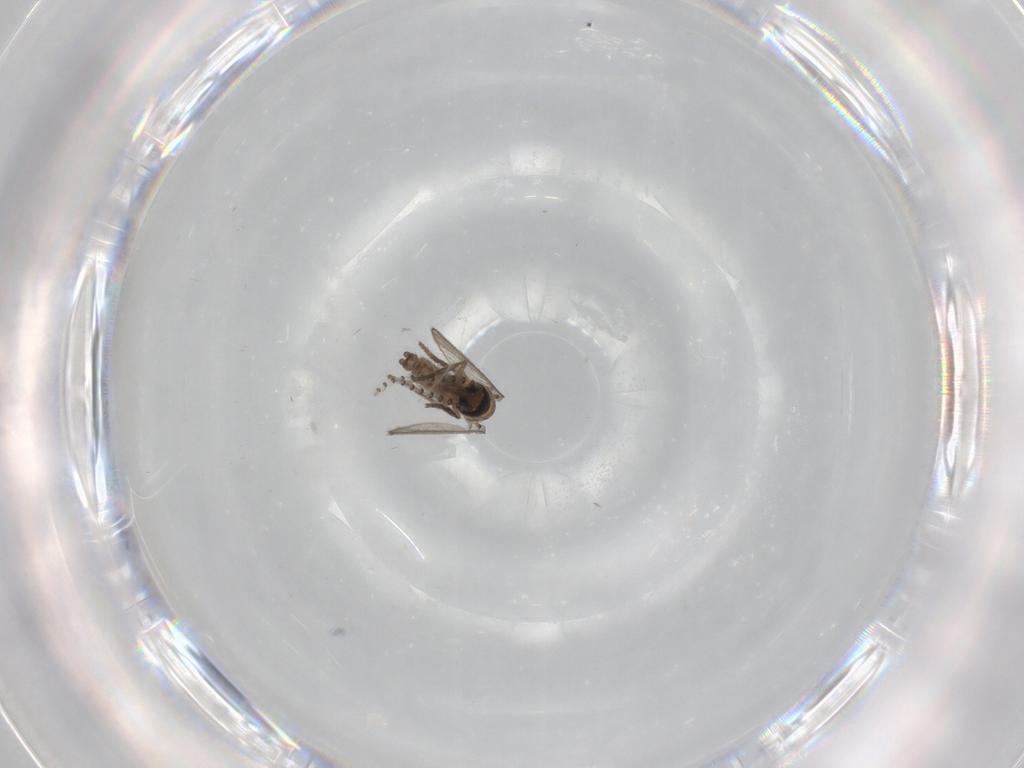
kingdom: Animalia
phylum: Arthropoda
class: Insecta
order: Diptera
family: Psychodidae
